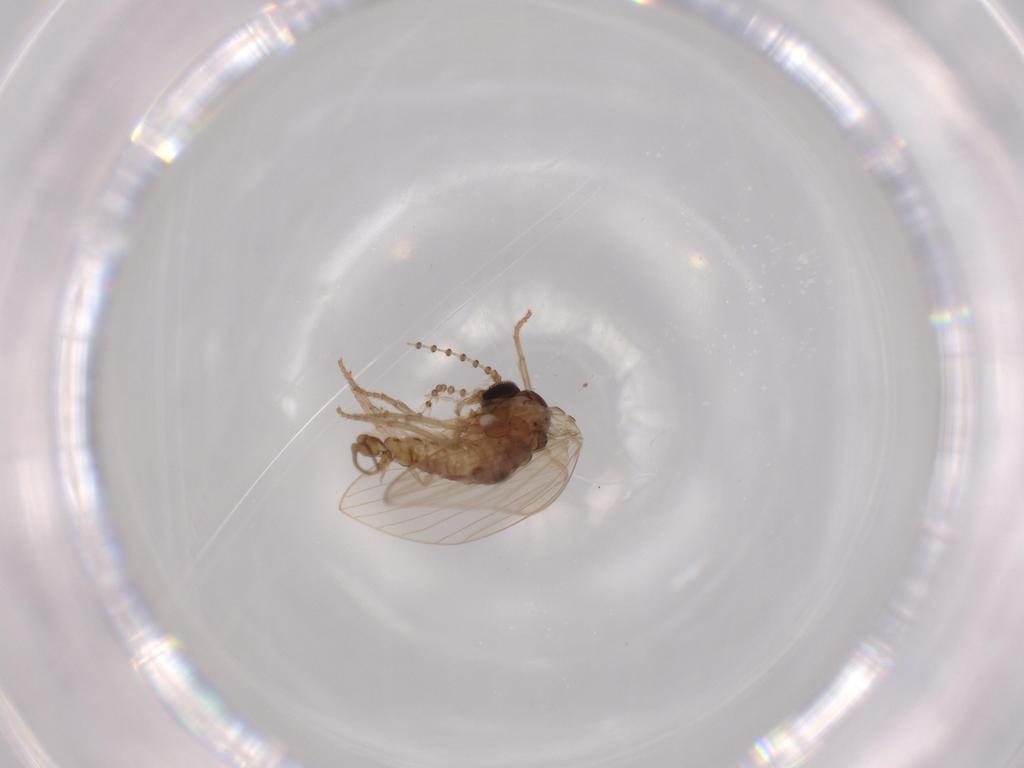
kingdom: Animalia
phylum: Arthropoda
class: Insecta
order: Diptera
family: Psychodidae
